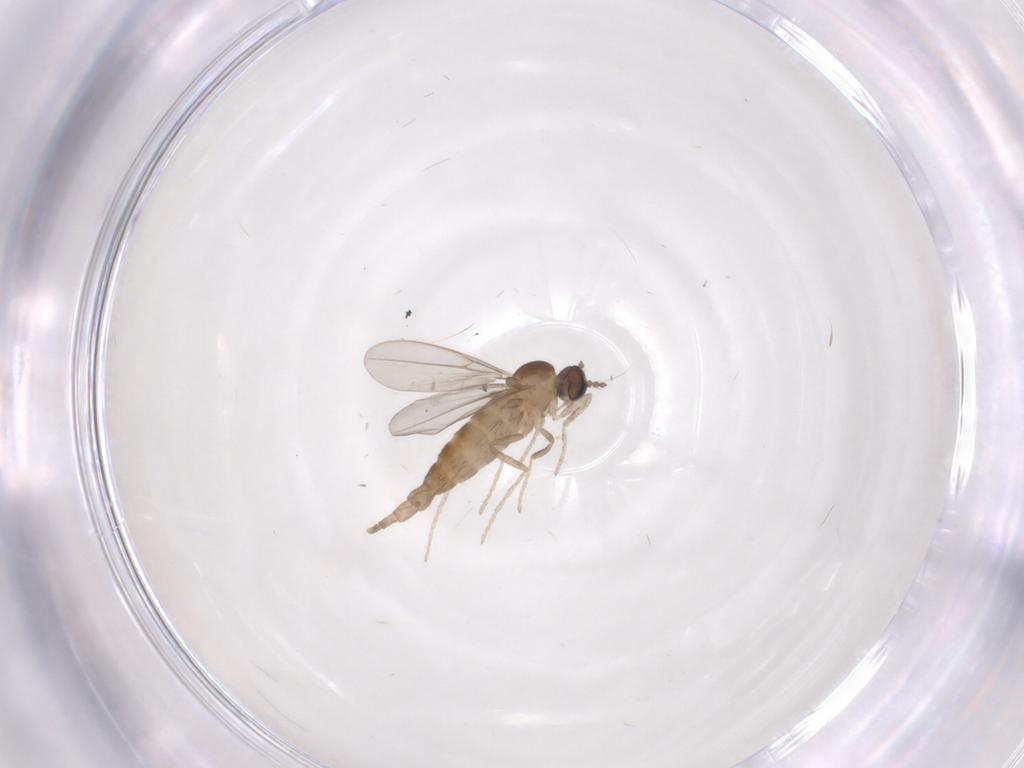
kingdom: Animalia
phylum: Arthropoda
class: Insecta
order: Diptera
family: Cecidomyiidae
